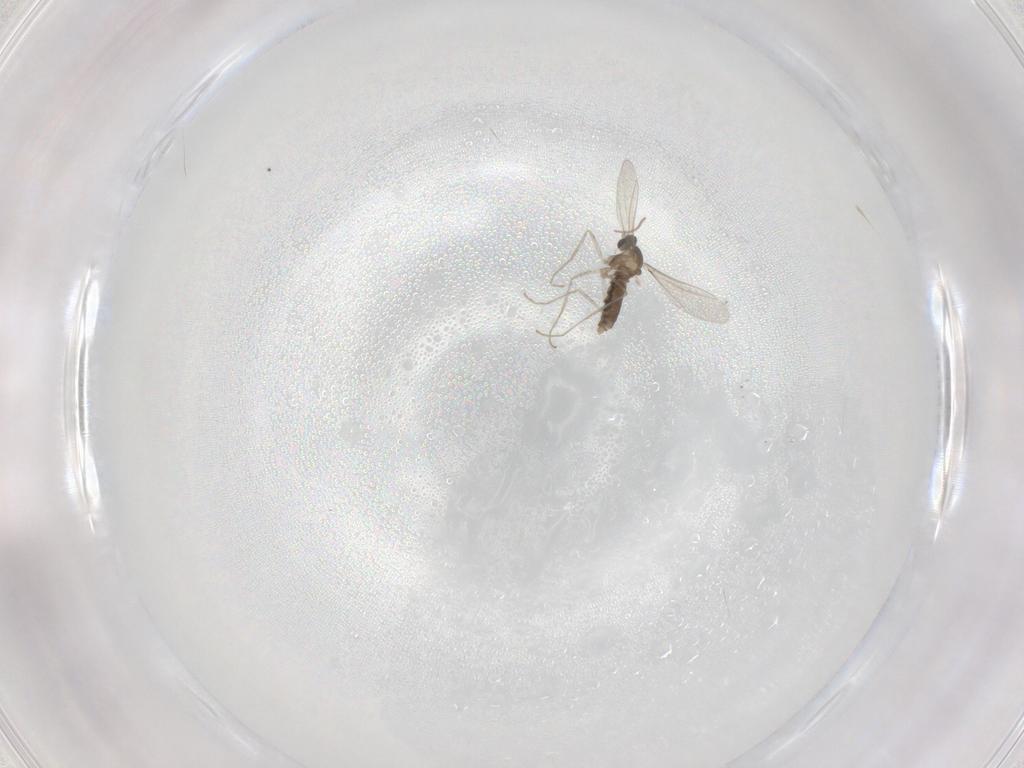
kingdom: Animalia
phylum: Arthropoda
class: Insecta
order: Diptera
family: Cecidomyiidae
